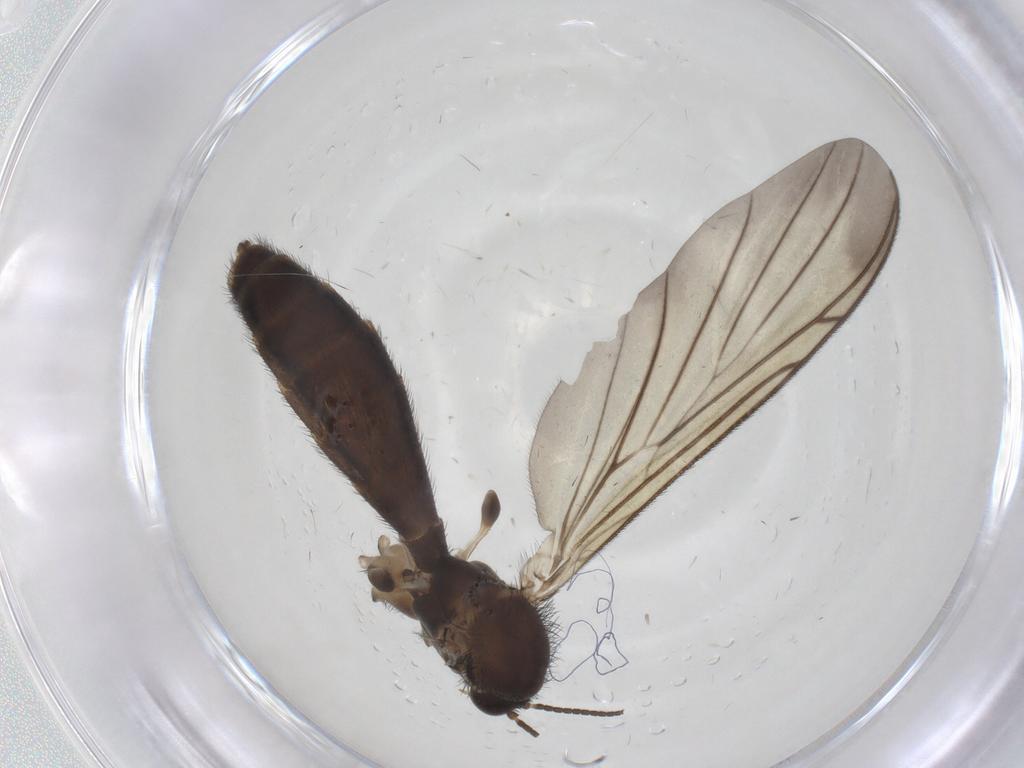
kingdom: Animalia
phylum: Arthropoda
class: Insecta
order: Diptera
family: Keroplatidae
